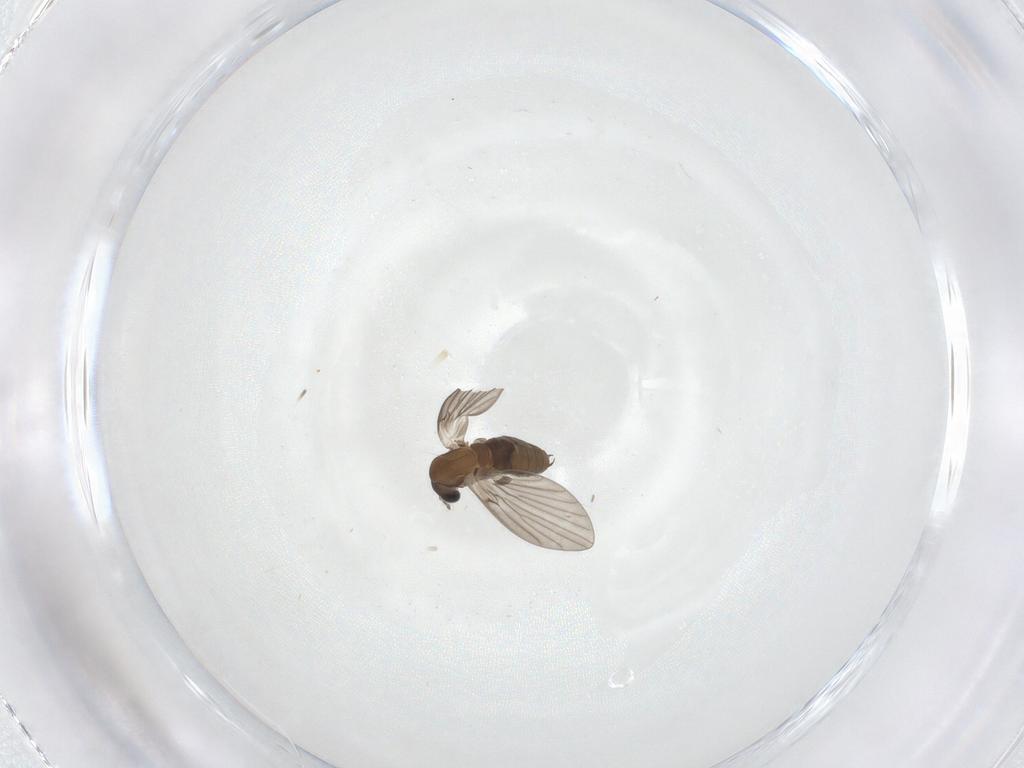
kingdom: Animalia
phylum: Arthropoda
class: Insecta
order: Diptera
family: Psychodidae
